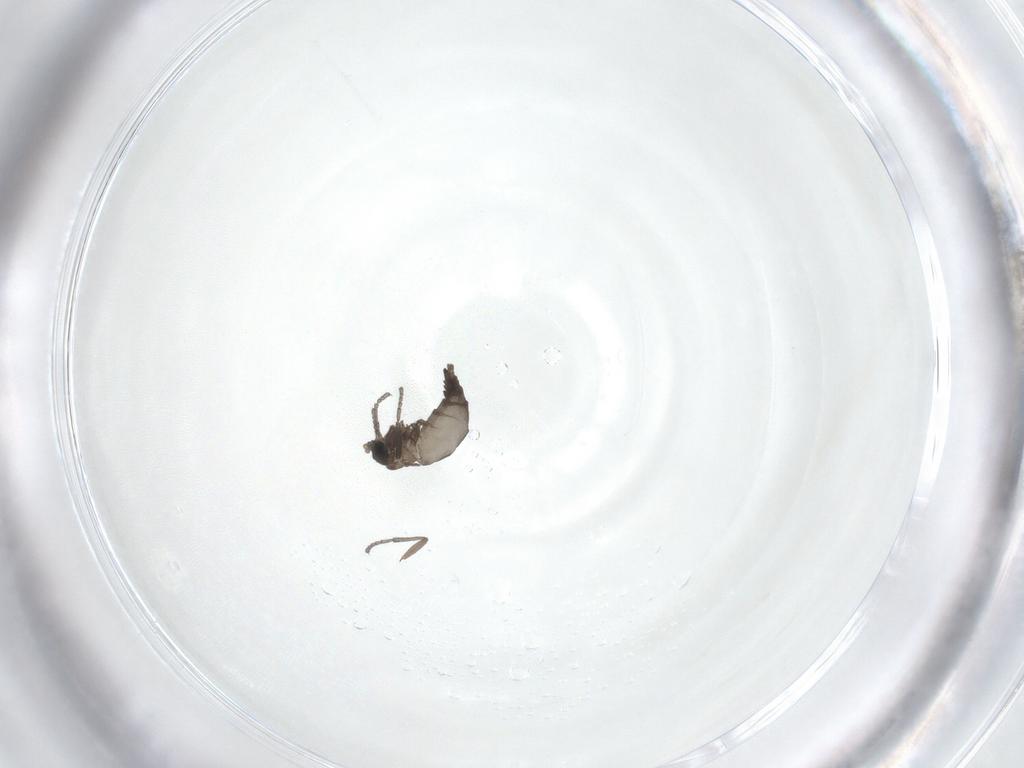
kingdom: Animalia
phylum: Arthropoda
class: Insecta
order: Diptera
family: Sciaridae
